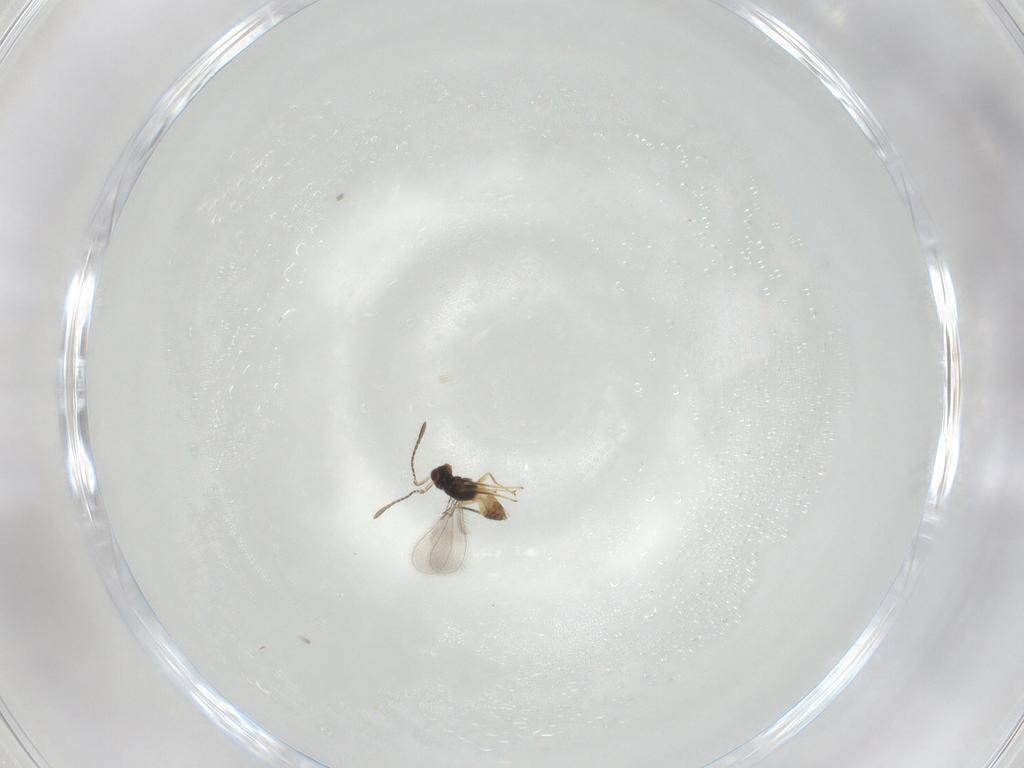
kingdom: Animalia
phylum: Arthropoda
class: Insecta
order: Hymenoptera
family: Mymaridae
